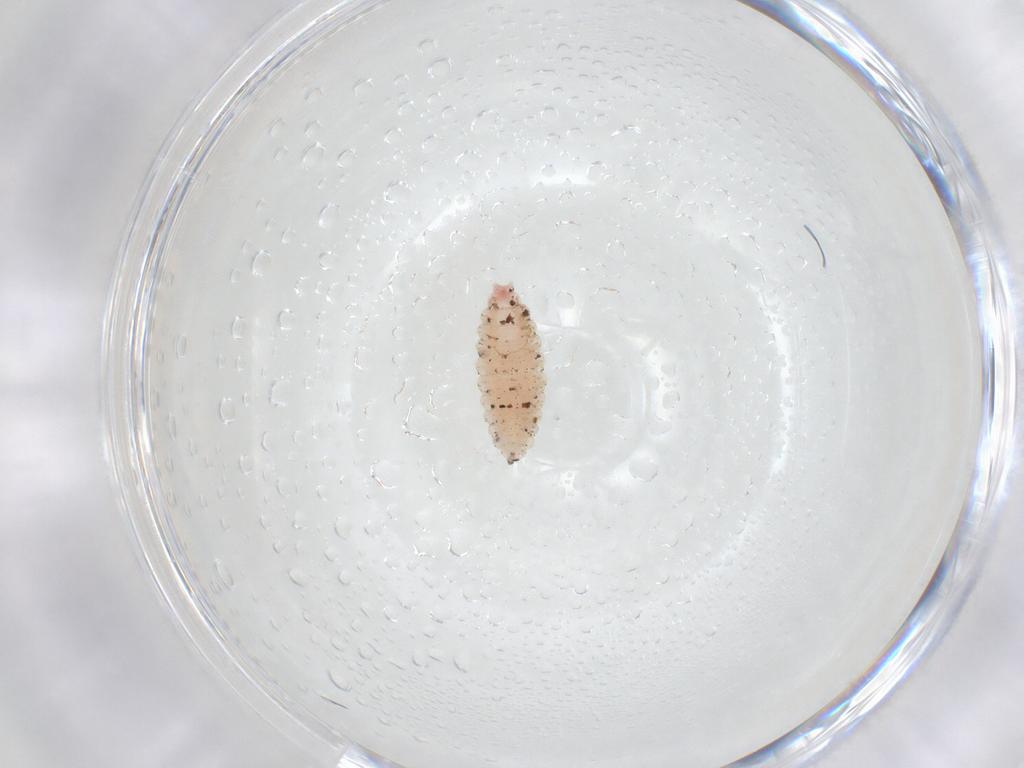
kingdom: Animalia
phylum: Arthropoda
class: Insecta
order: Diptera
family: Cecidomyiidae
